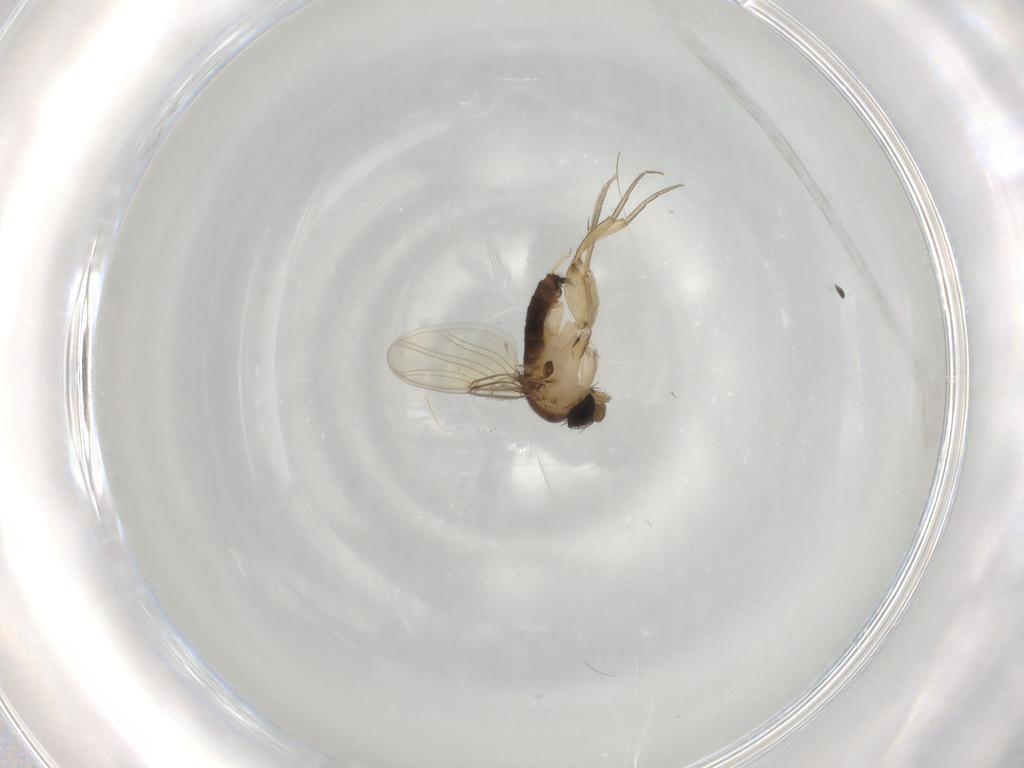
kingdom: Animalia
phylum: Arthropoda
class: Insecta
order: Diptera
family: Phoridae
